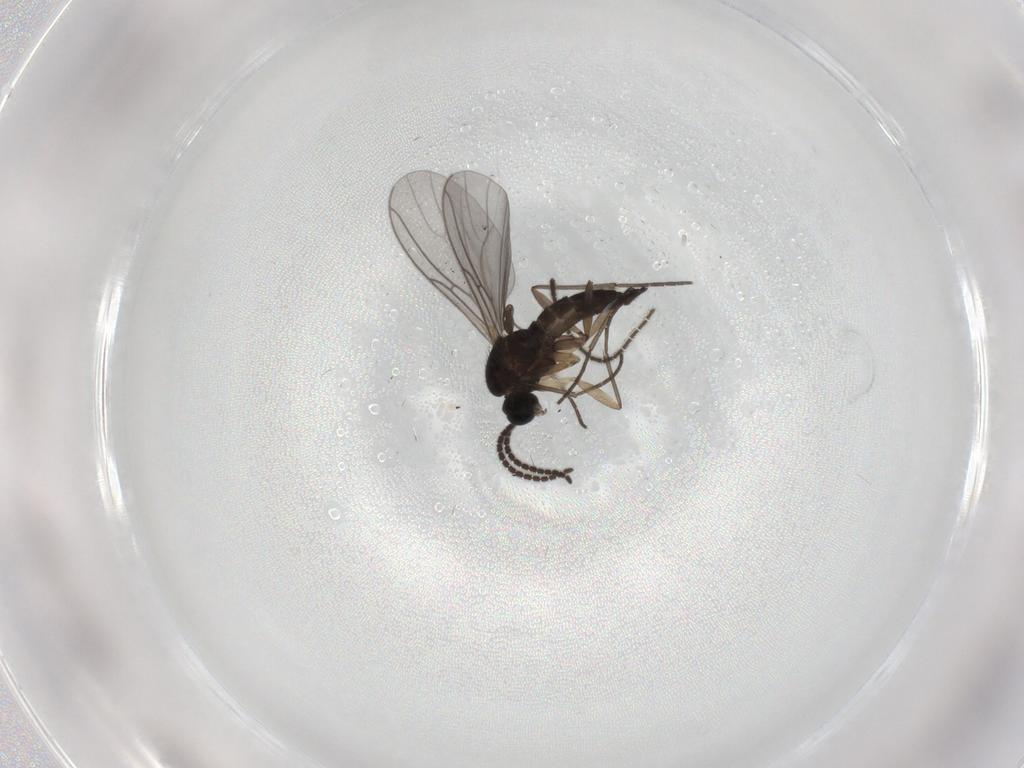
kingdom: Animalia
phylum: Arthropoda
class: Insecta
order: Diptera
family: Sciaridae
